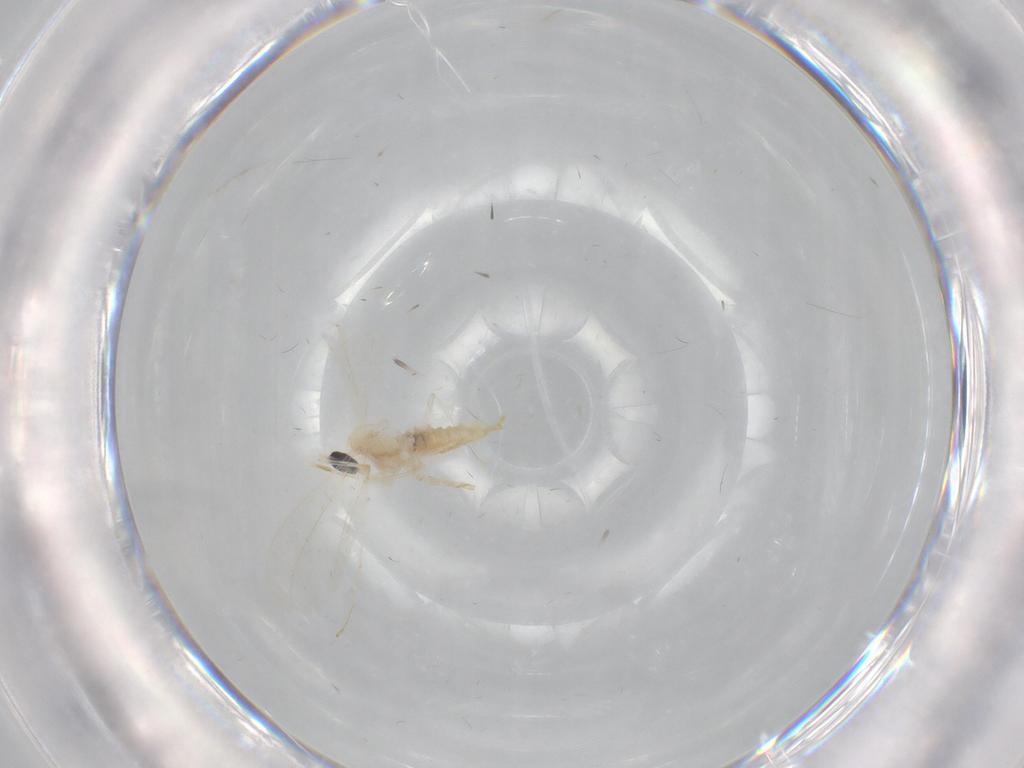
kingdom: Animalia
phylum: Arthropoda
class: Insecta
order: Diptera
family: Cecidomyiidae
